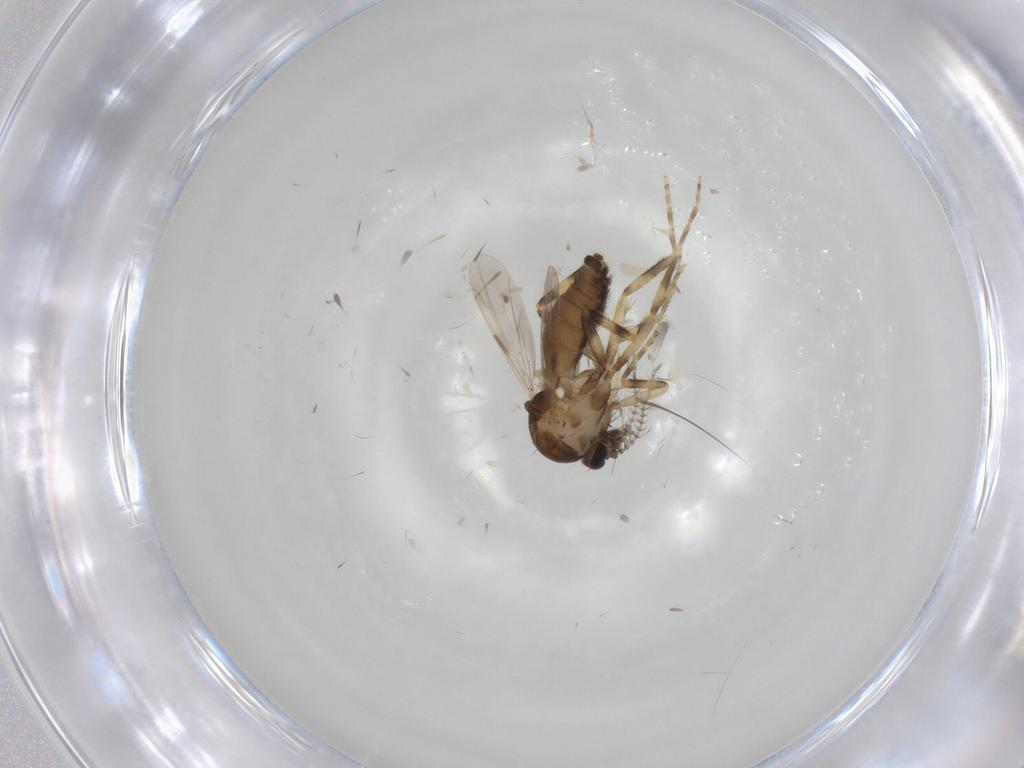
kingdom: Animalia
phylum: Arthropoda
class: Insecta
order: Diptera
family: Ceratopogonidae
